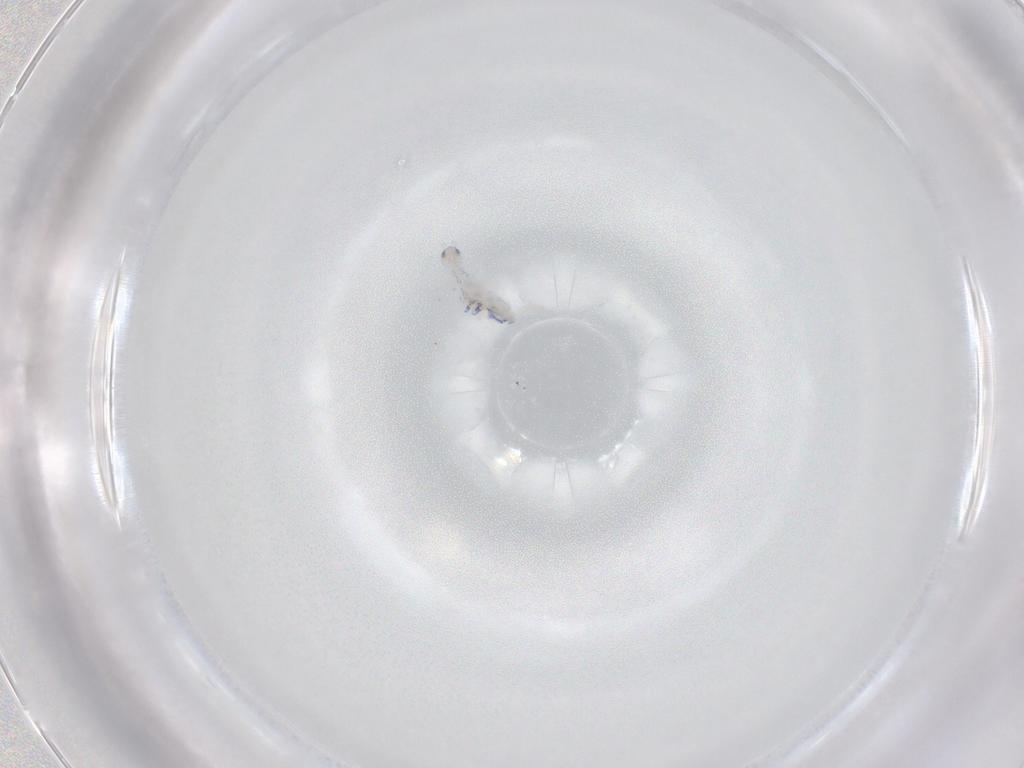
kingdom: Animalia
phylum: Arthropoda
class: Collembola
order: Entomobryomorpha
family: Entomobryidae
